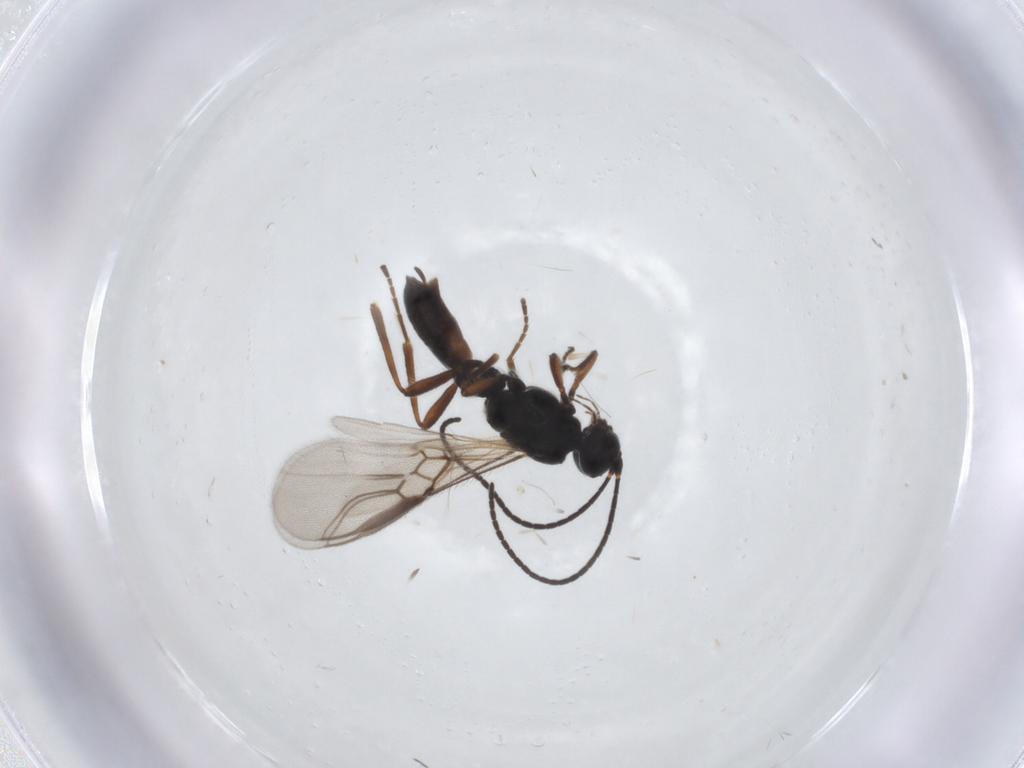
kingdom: Animalia
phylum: Arthropoda
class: Insecta
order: Hymenoptera
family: Braconidae
